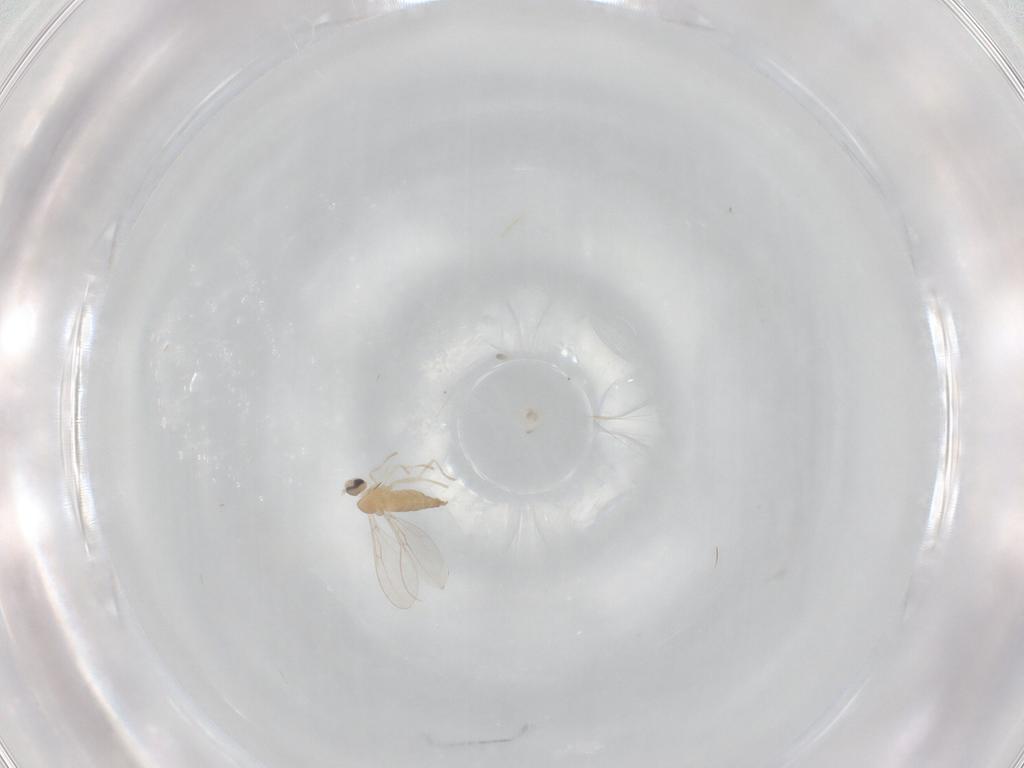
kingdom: Animalia
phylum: Arthropoda
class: Insecta
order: Diptera
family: Cecidomyiidae
